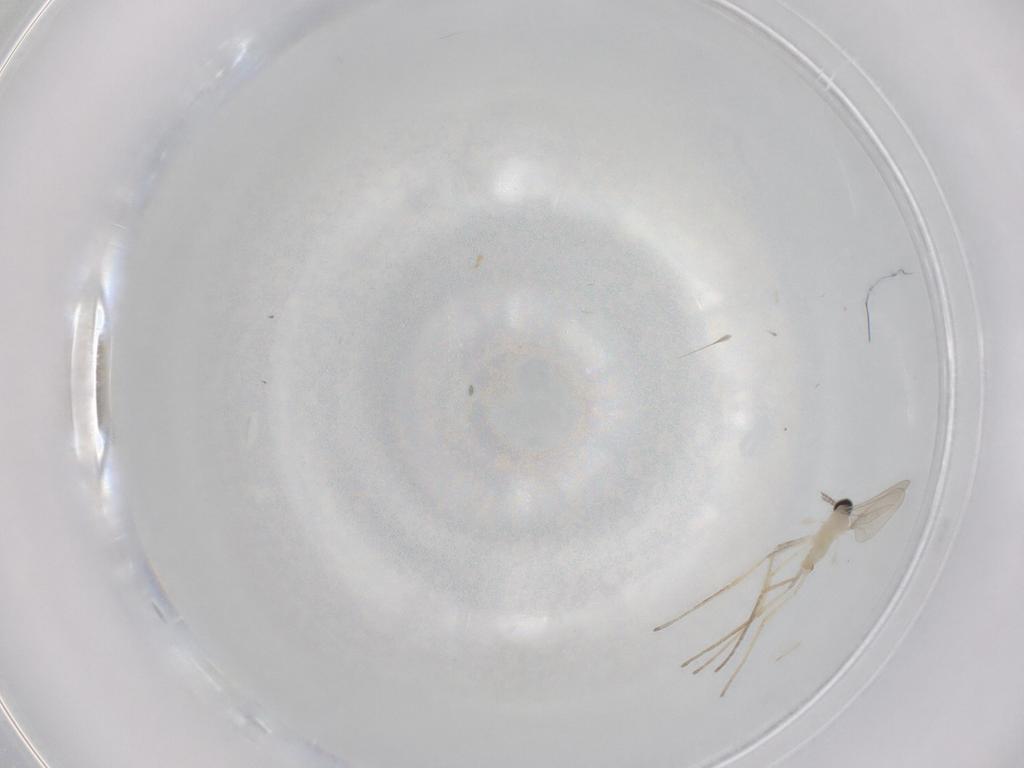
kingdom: Animalia
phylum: Arthropoda
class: Insecta
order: Diptera
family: Cecidomyiidae
